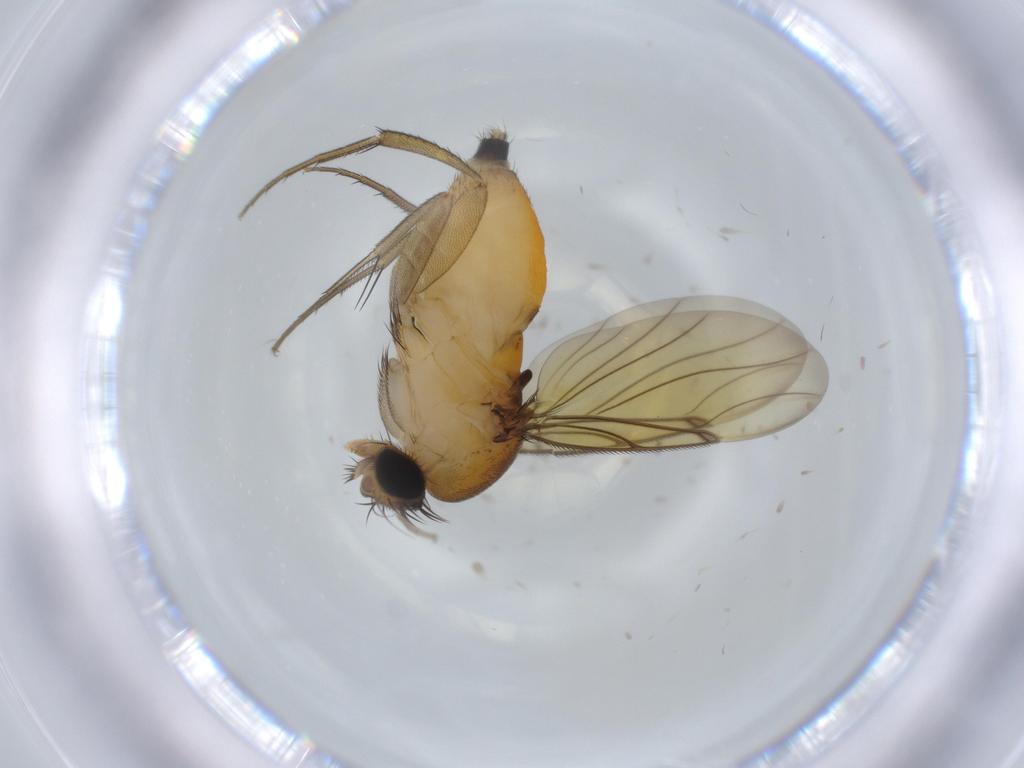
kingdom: Animalia
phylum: Arthropoda
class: Insecta
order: Diptera
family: Phoridae
